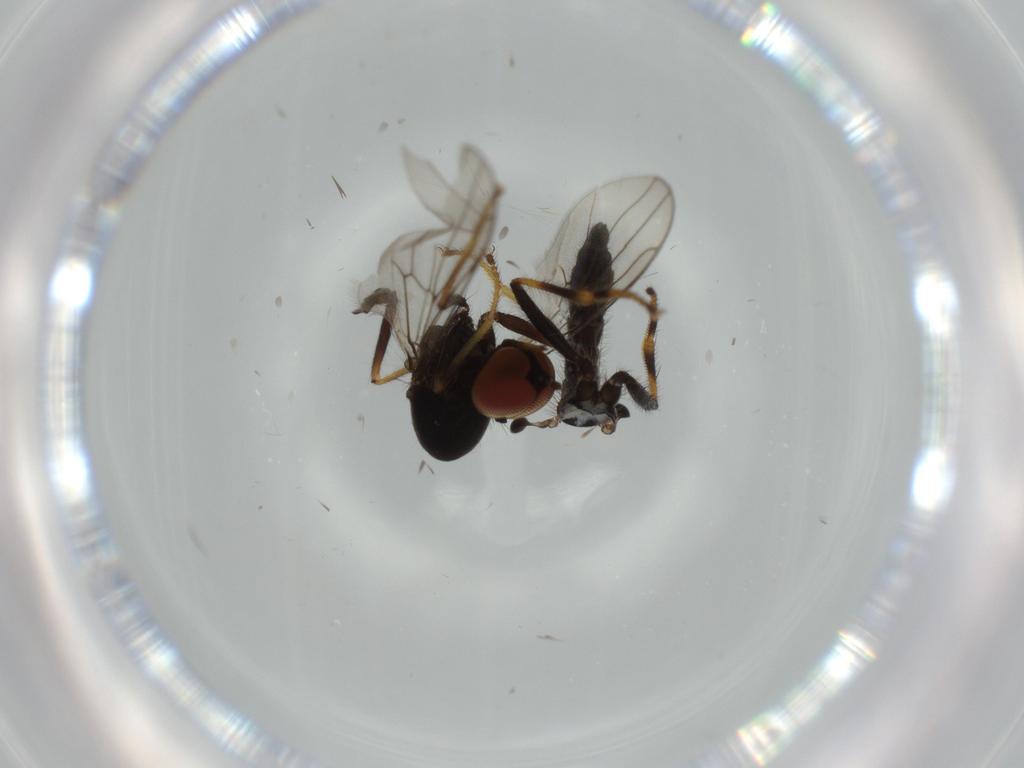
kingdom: Animalia
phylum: Arthropoda
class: Insecta
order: Diptera
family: Hybotidae
